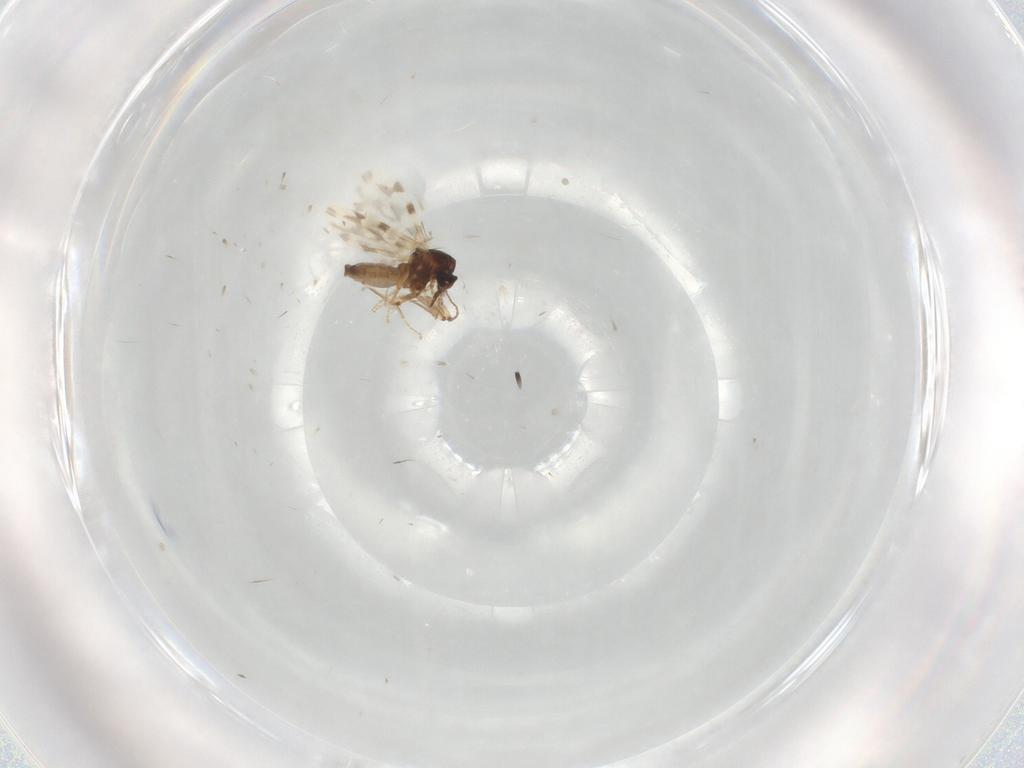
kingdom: Animalia
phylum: Arthropoda
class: Insecta
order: Diptera
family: Ceratopogonidae
